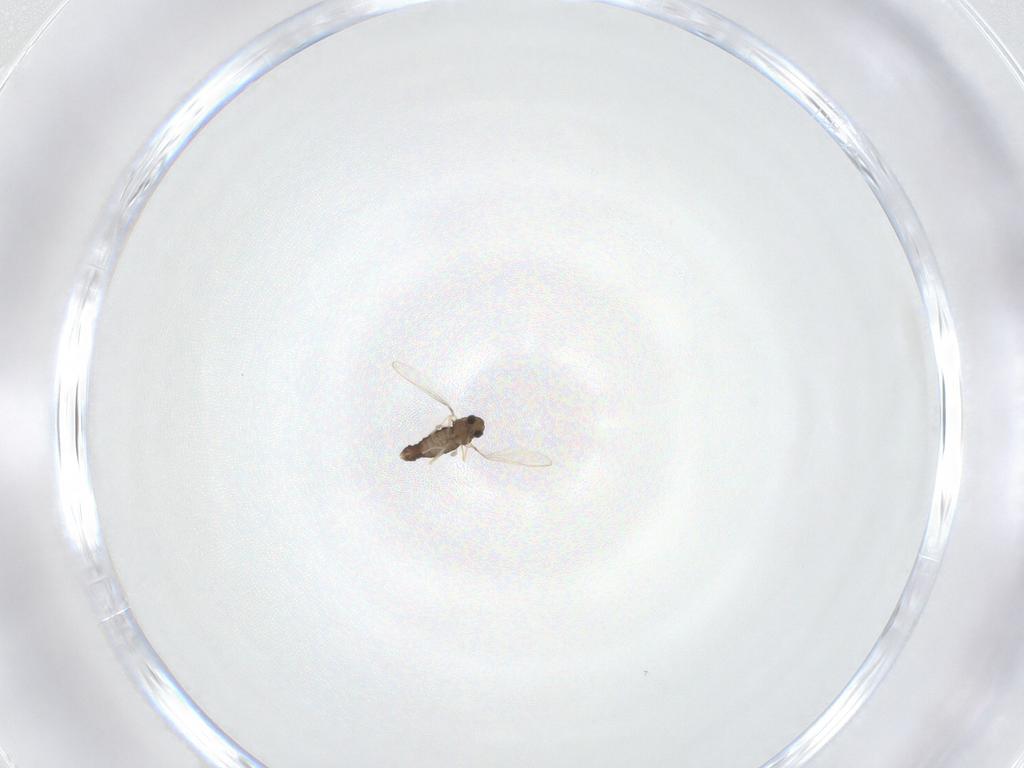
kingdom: Animalia
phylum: Arthropoda
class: Insecta
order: Diptera
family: Chironomidae
